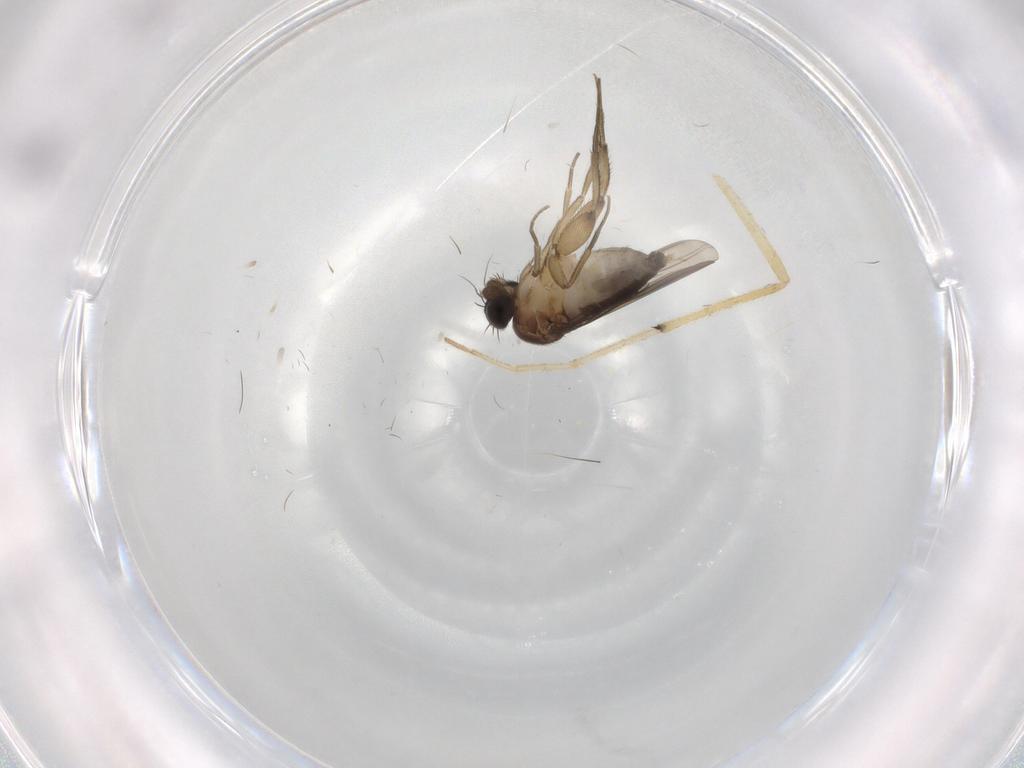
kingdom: Animalia
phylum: Arthropoda
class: Insecta
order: Diptera
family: Phoridae
